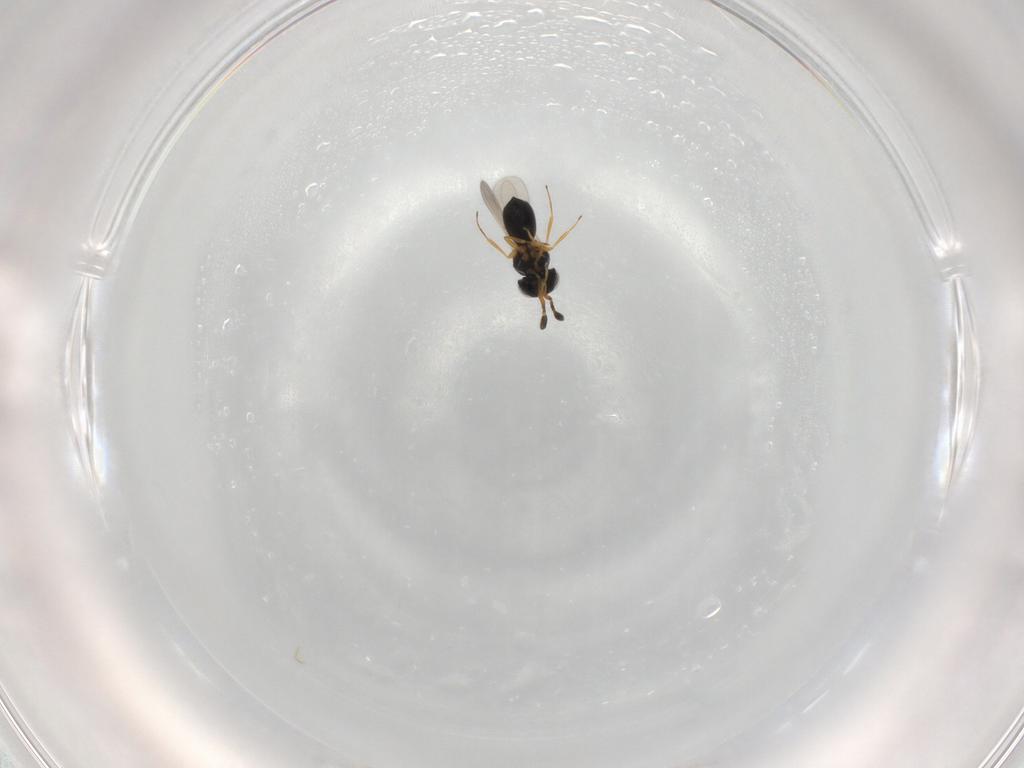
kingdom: Animalia
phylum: Arthropoda
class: Insecta
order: Hymenoptera
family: Scelionidae
